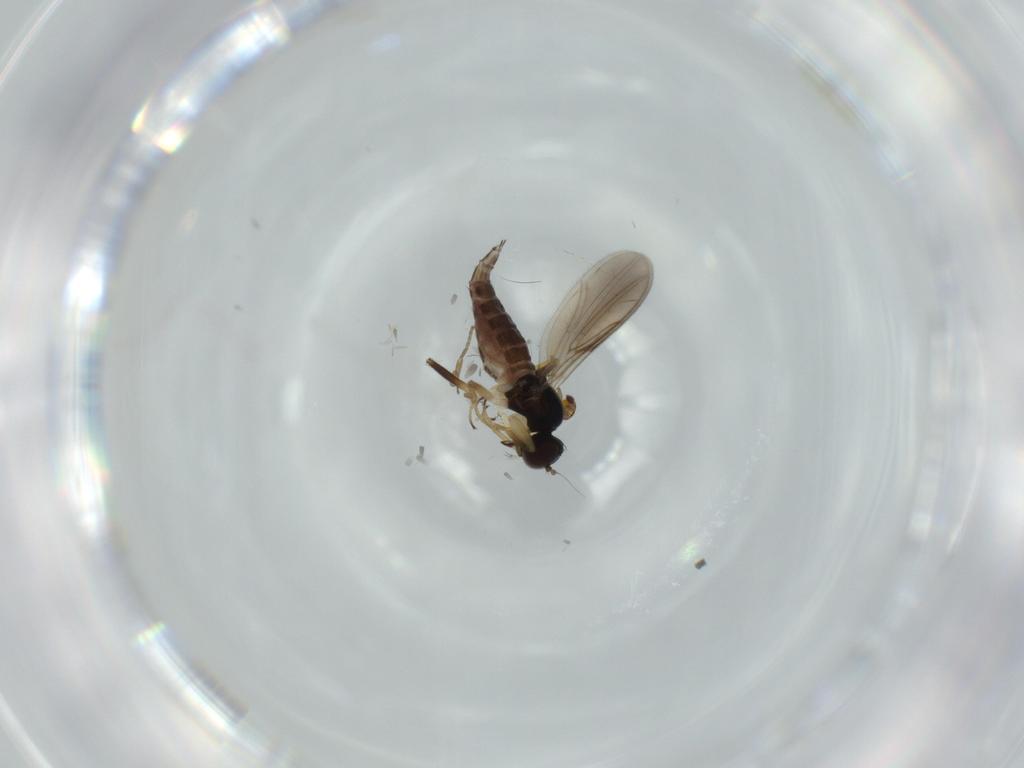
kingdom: Animalia
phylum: Arthropoda
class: Insecta
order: Diptera
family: Hybotidae
